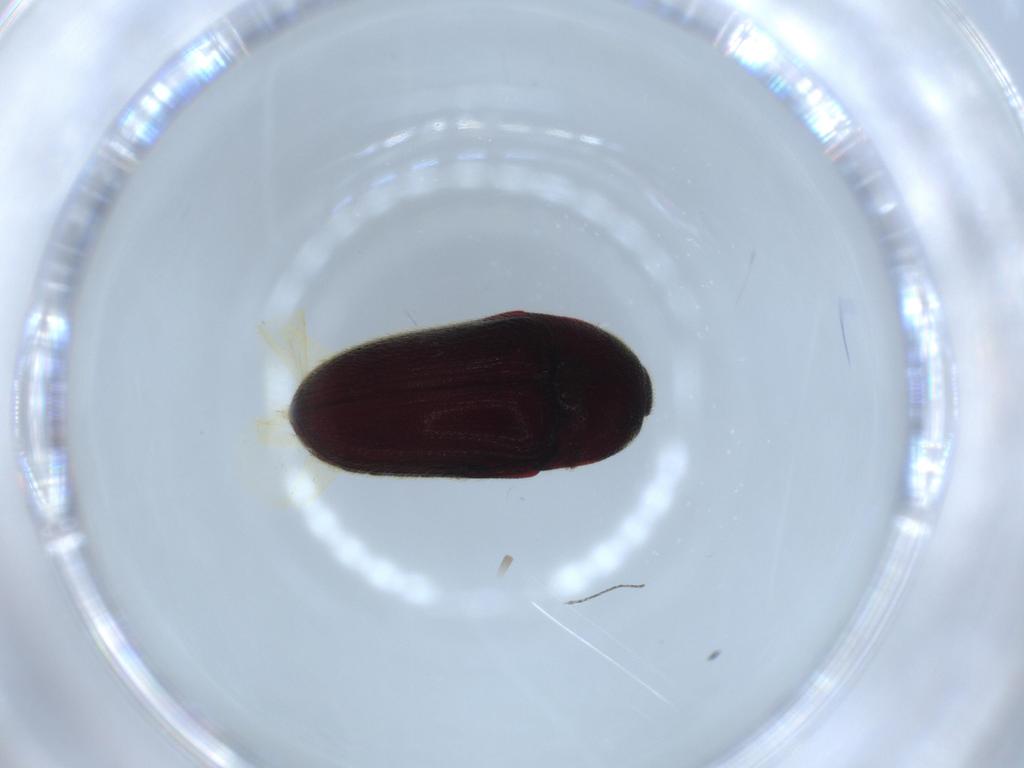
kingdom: Animalia
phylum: Arthropoda
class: Insecta
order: Coleoptera
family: Throscidae
